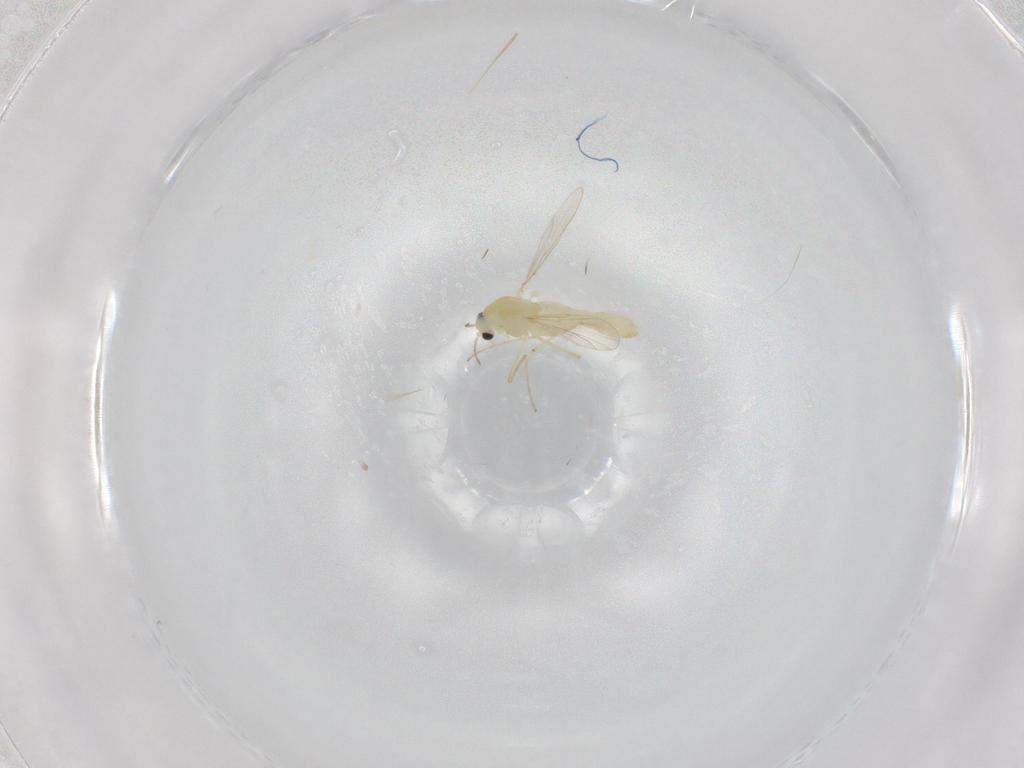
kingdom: Animalia
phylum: Arthropoda
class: Insecta
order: Diptera
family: Chironomidae
